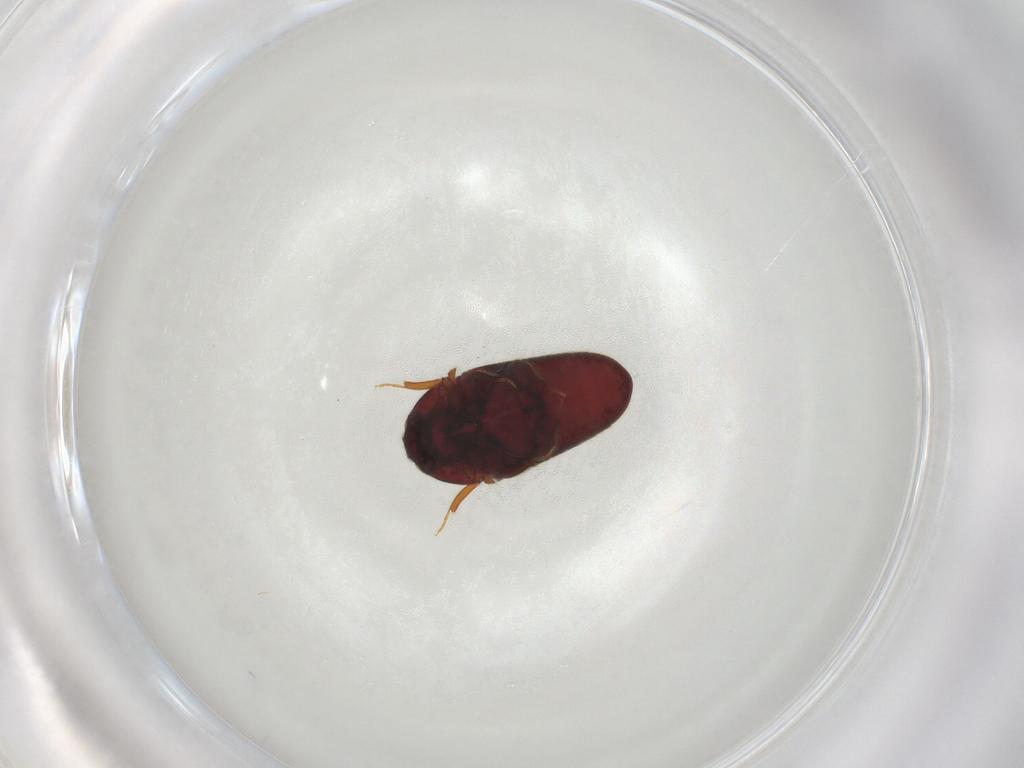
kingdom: Animalia
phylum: Arthropoda
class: Insecta
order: Coleoptera
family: Throscidae
